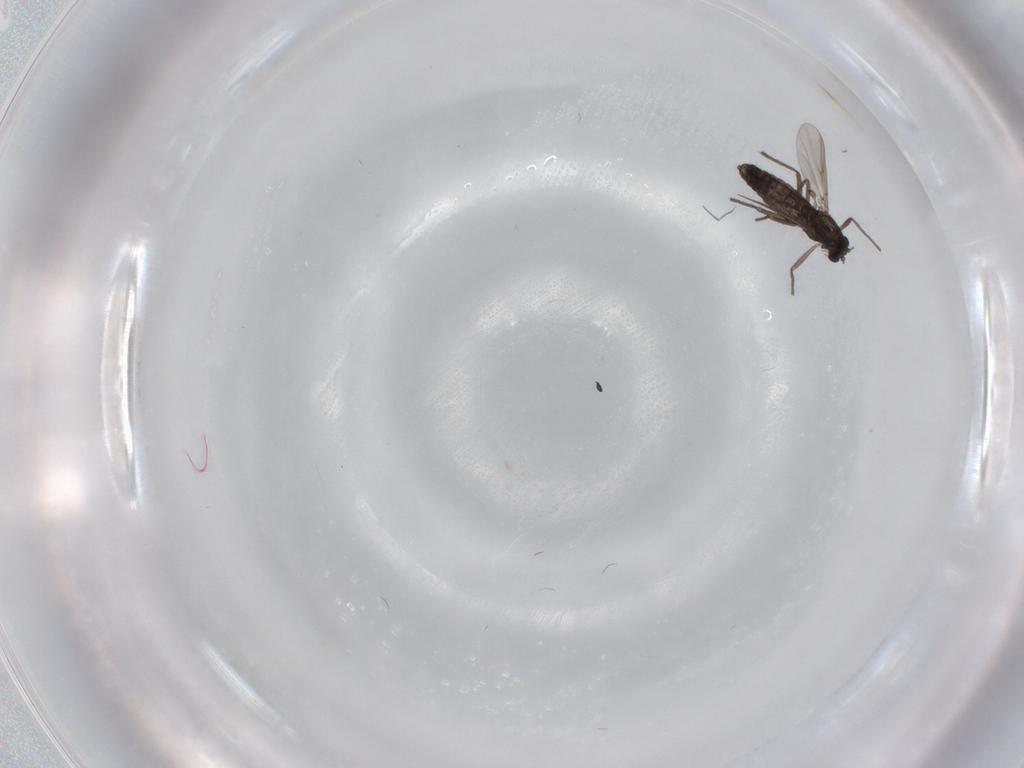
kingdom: Animalia
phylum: Arthropoda
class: Insecta
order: Diptera
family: Chironomidae
